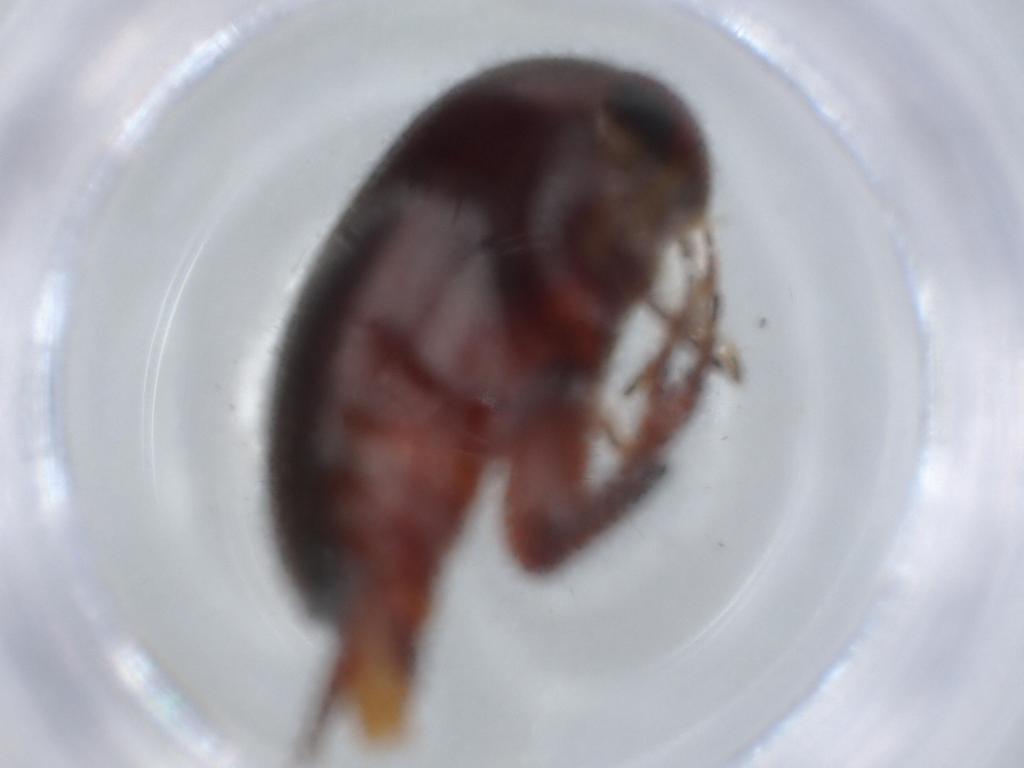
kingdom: Animalia
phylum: Arthropoda
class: Insecta
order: Coleoptera
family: Mordellidae
